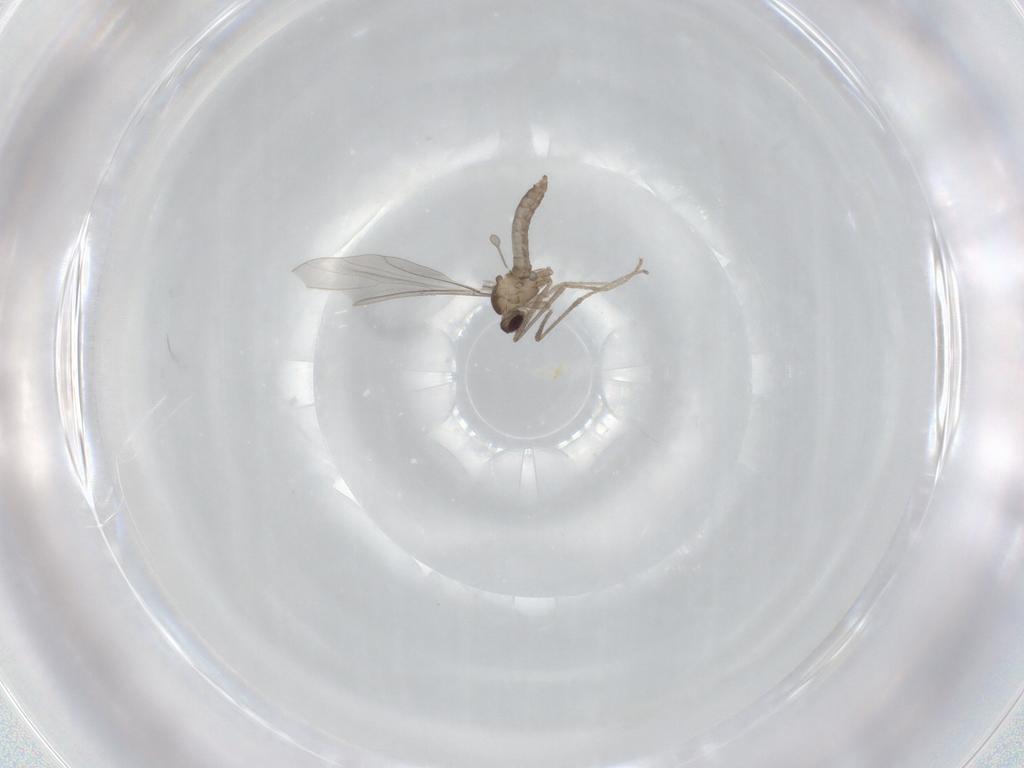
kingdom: Animalia
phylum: Arthropoda
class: Insecta
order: Diptera
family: Cecidomyiidae
